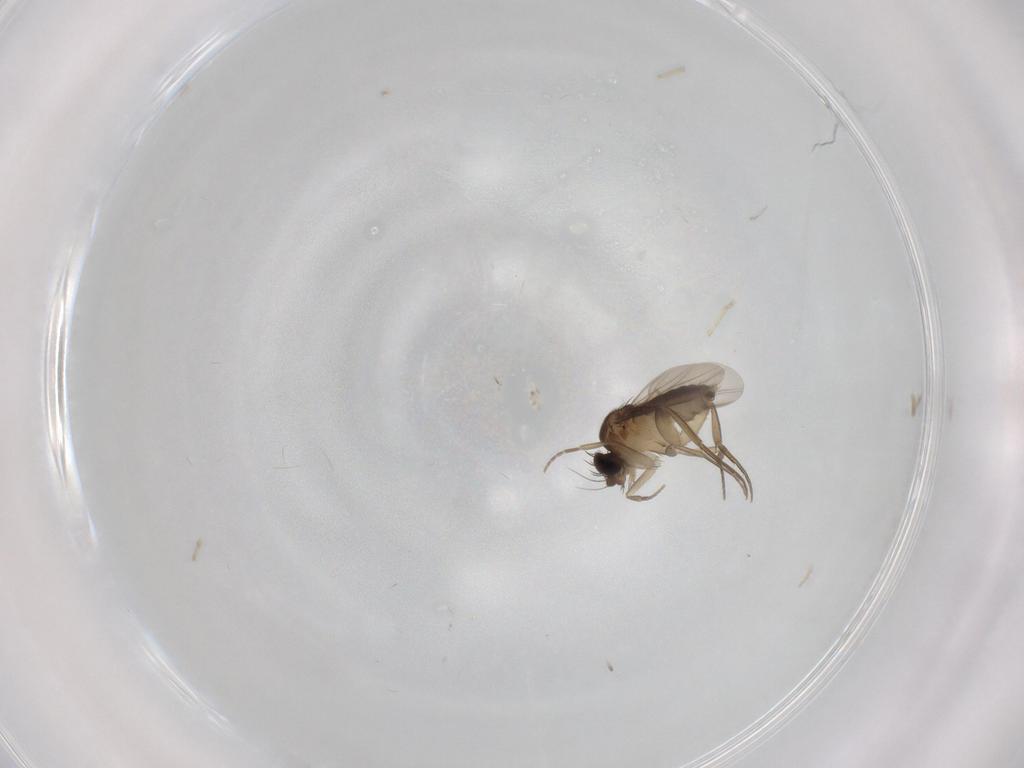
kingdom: Animalia
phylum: Arthropoda
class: Insecta
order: Diptera
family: Phoridae
